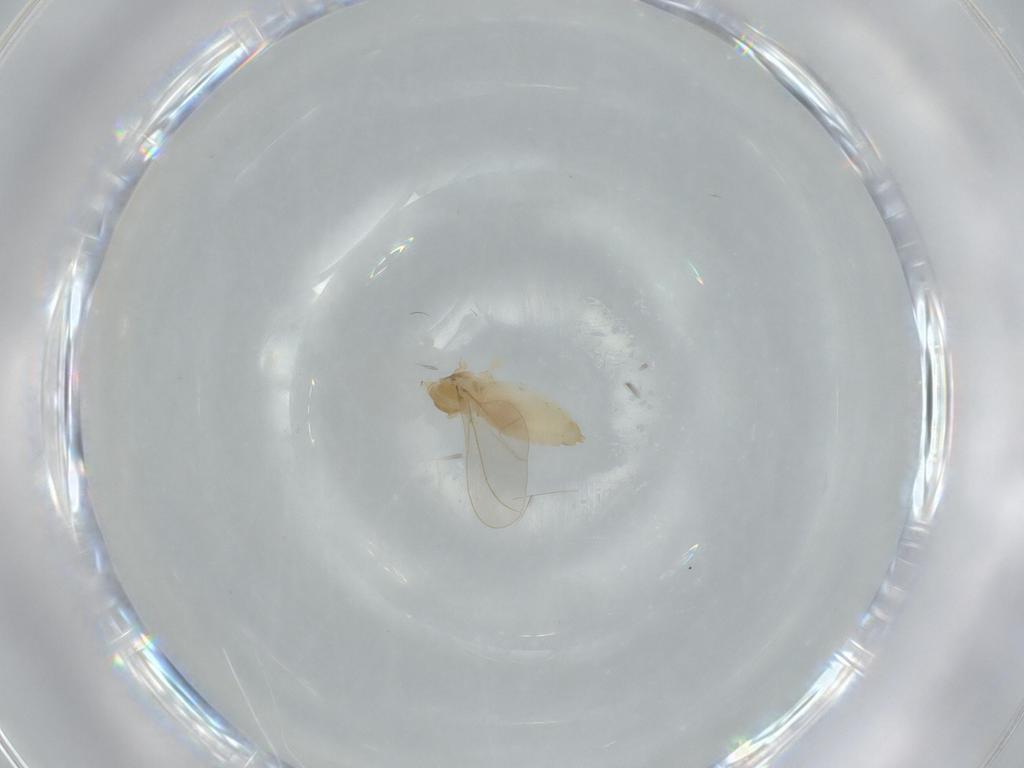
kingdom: Animalia
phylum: Arthropoda
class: Insecta
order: Diptera
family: Cecidomyiidae
